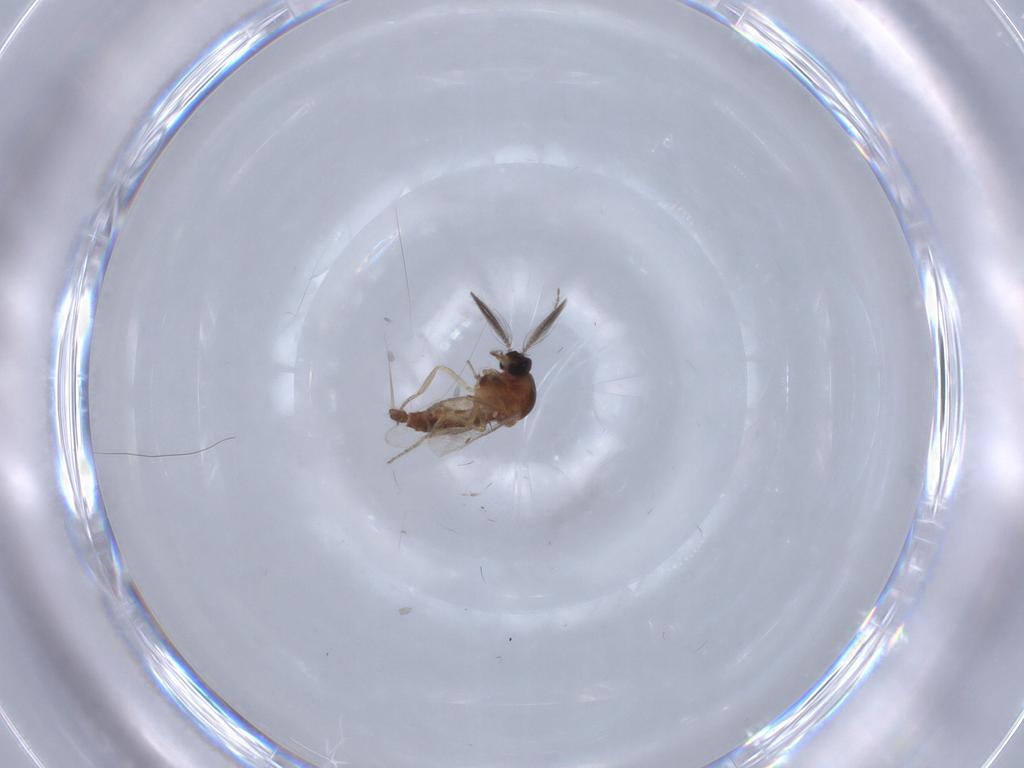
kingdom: Animalia
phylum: Arthropoda
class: Insecta
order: Diptera
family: Ceratopogonidae
